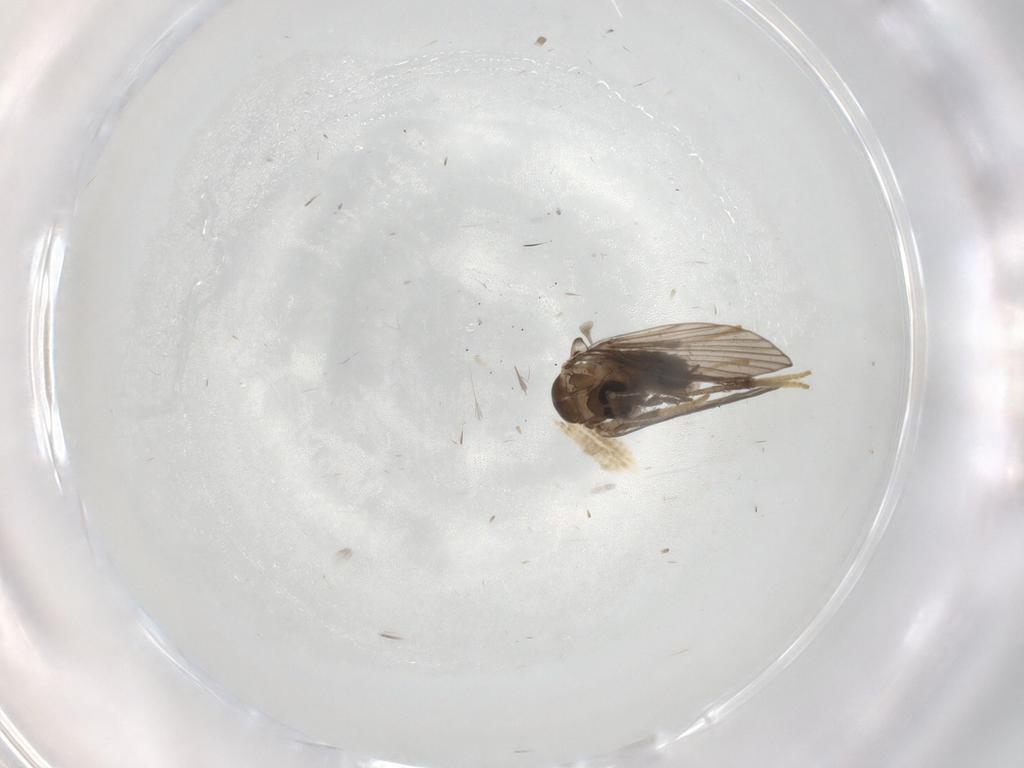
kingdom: Animalia
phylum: Arthropoda
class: Insecta
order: Diptera
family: Psychodidae
